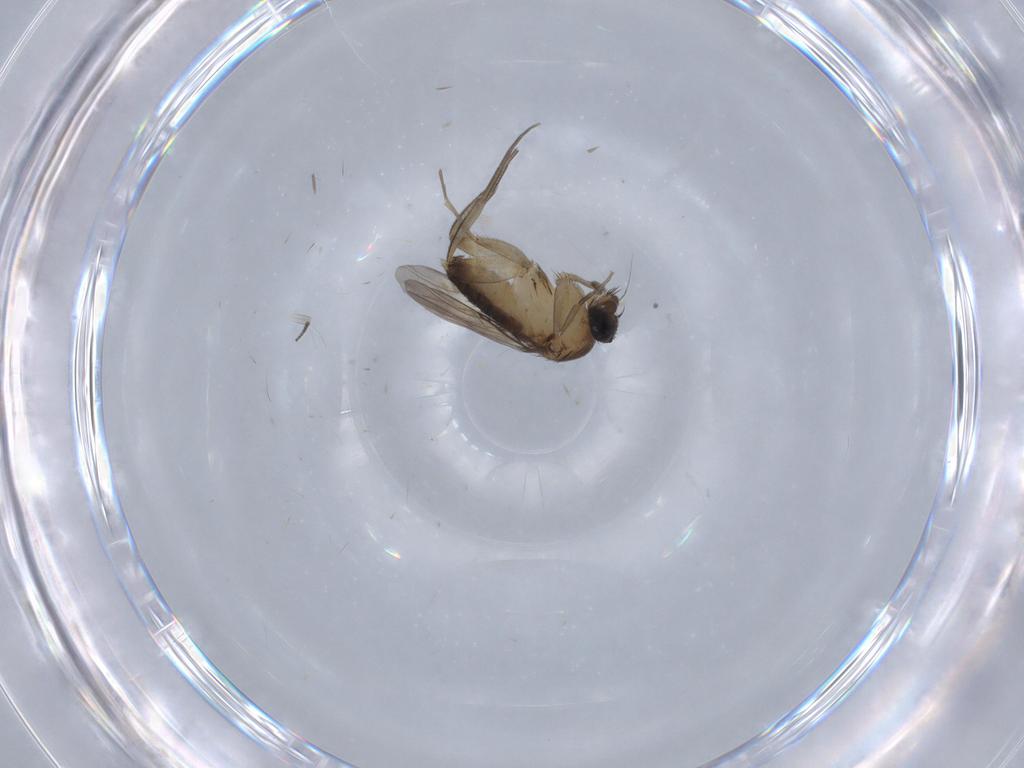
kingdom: Animalia
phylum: Arthropoda
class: Insecta
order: Diptera
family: Phoridae
